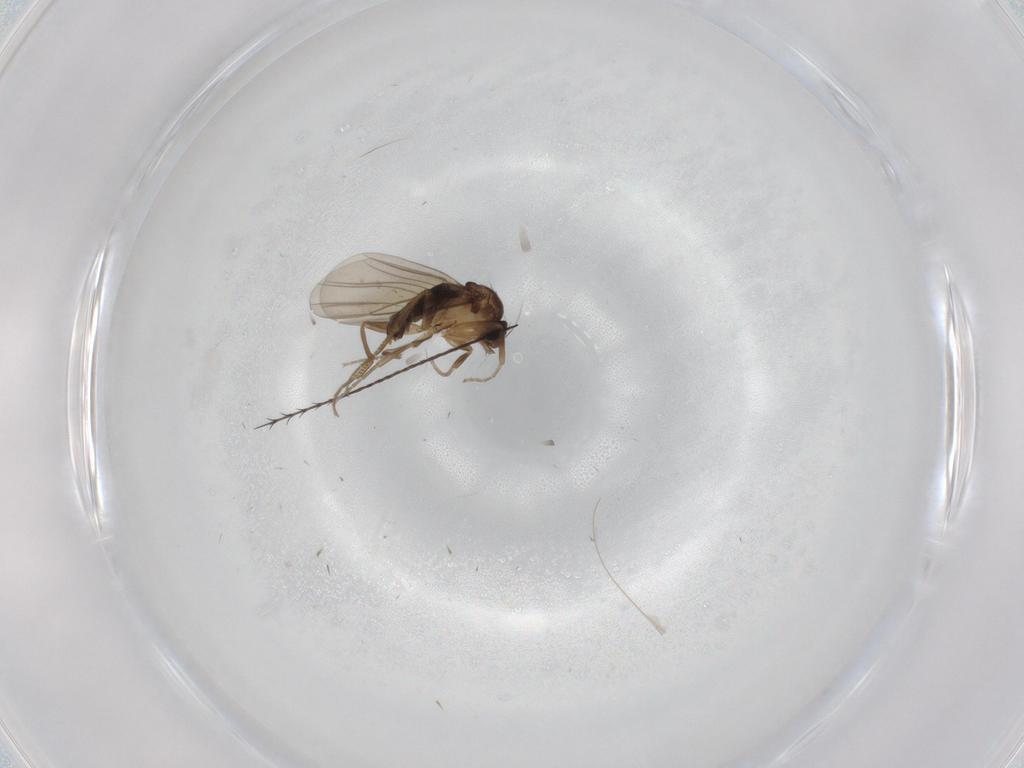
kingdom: Animalia
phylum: Arthropoda
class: Insecta
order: Diptera
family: Phoridae
